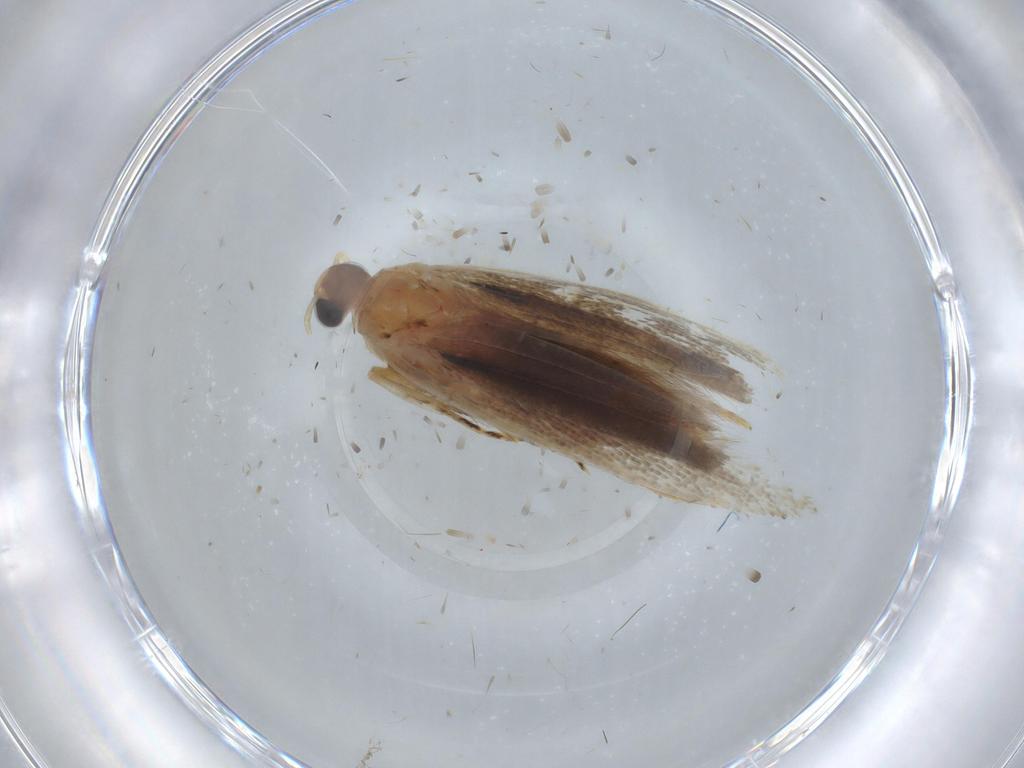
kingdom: Animalia
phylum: Arthropoda
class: Insecta
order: Lepidoptera
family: Gelechiidae
